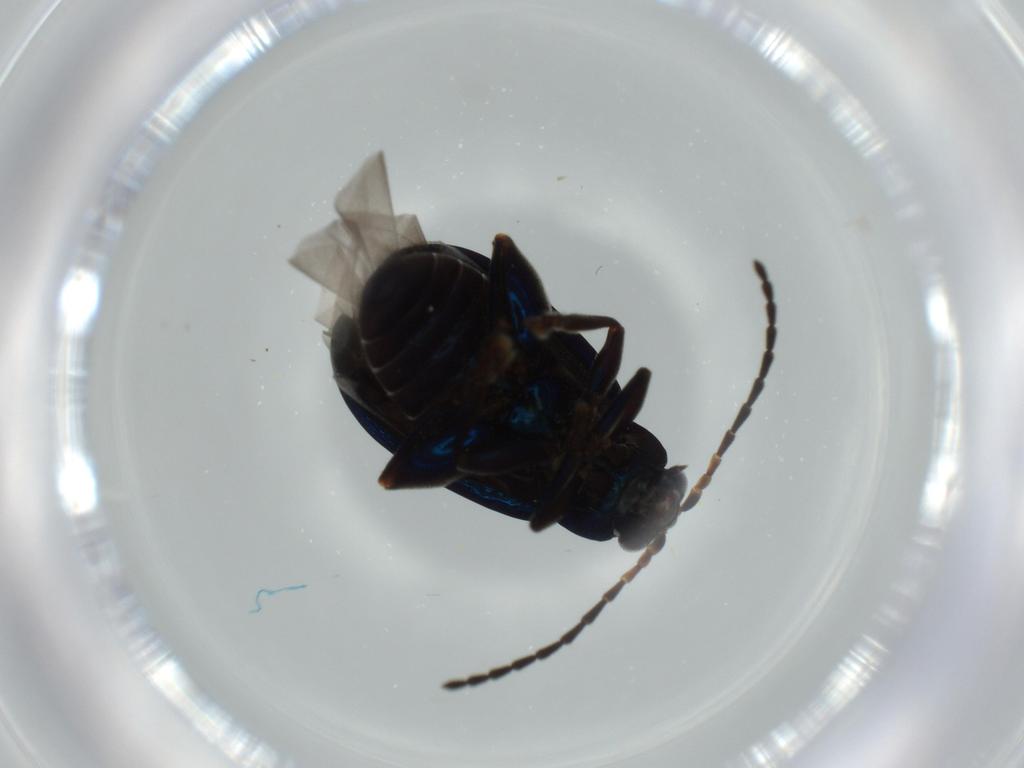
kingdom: Animalia
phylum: Arthropoda
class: Insecta
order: Coleoptera
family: Chrysomelidae
